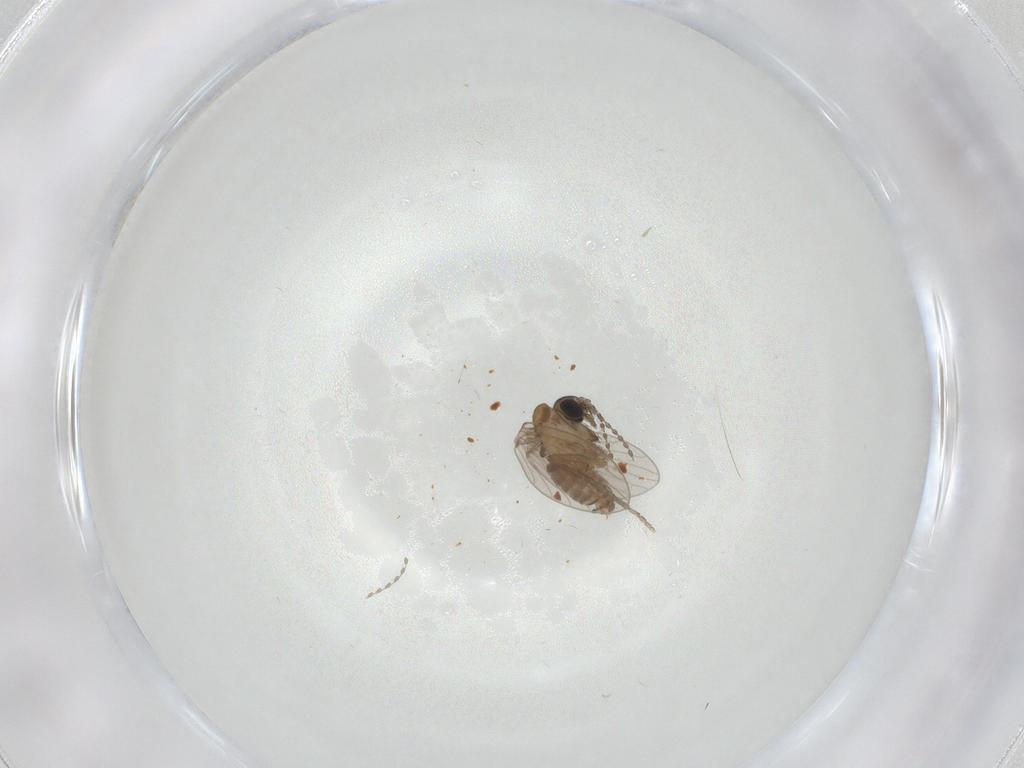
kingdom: Animalia
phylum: Arthropoda
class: Insecta
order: Diptera
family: Psychodidae
